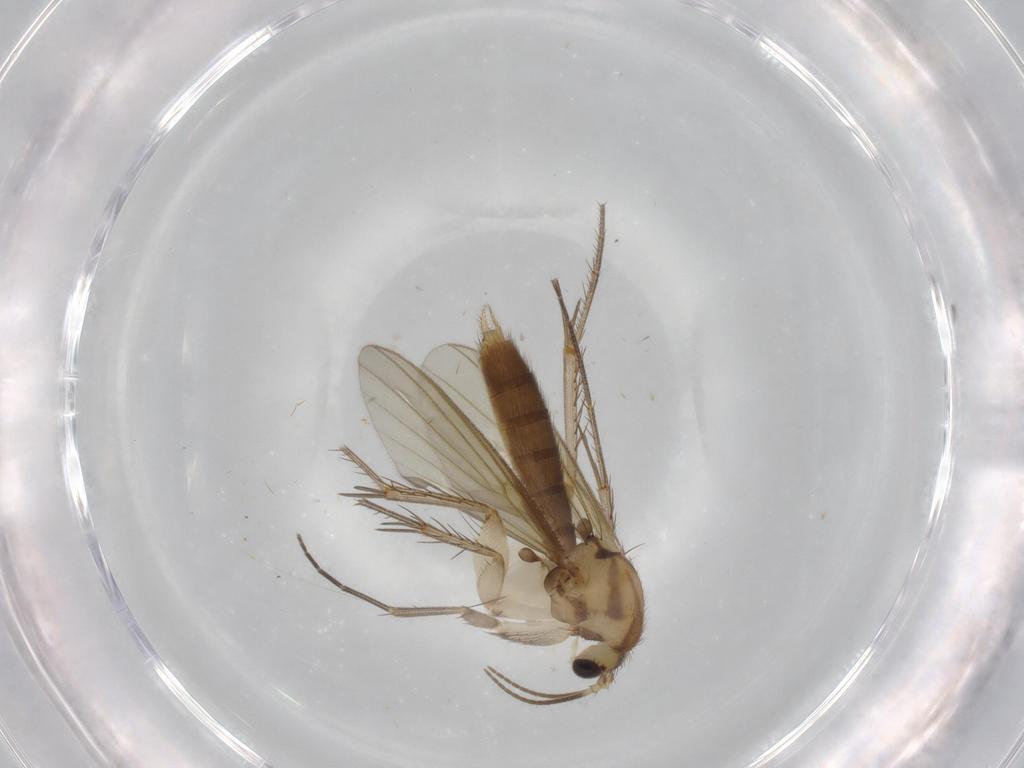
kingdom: Animalia
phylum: Arthropoda
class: Insecta
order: Diptera
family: Mycetophilidae
